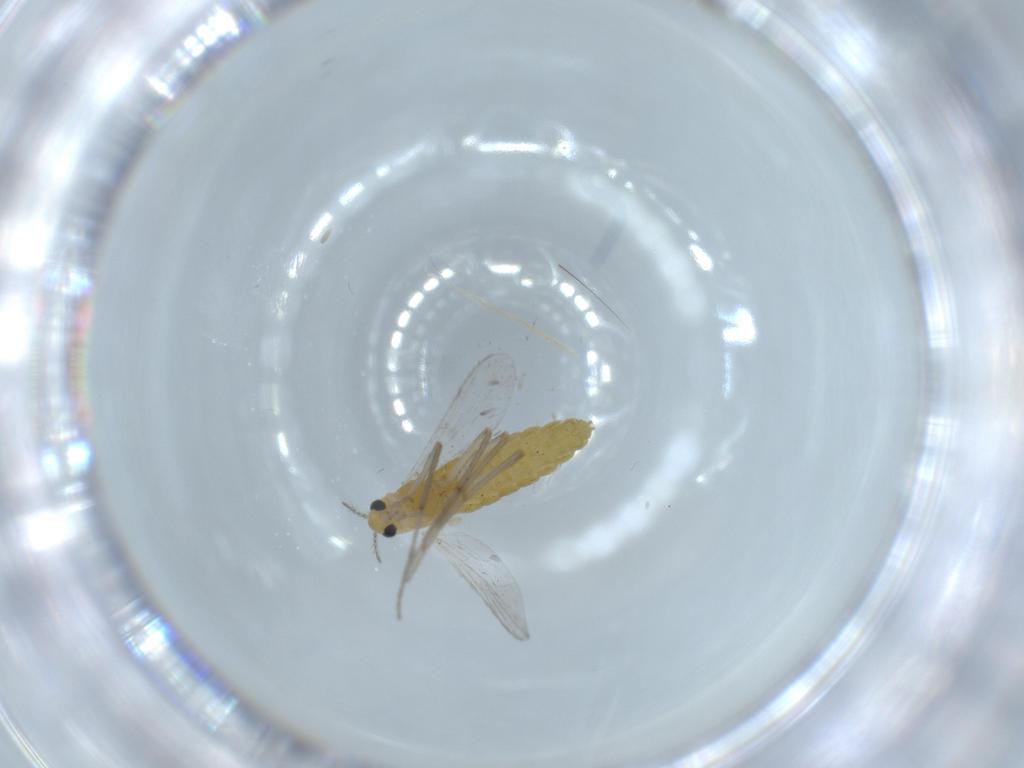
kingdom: Animalia
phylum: Arthropoda
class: Insecta
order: Diptera
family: Chironomidae
